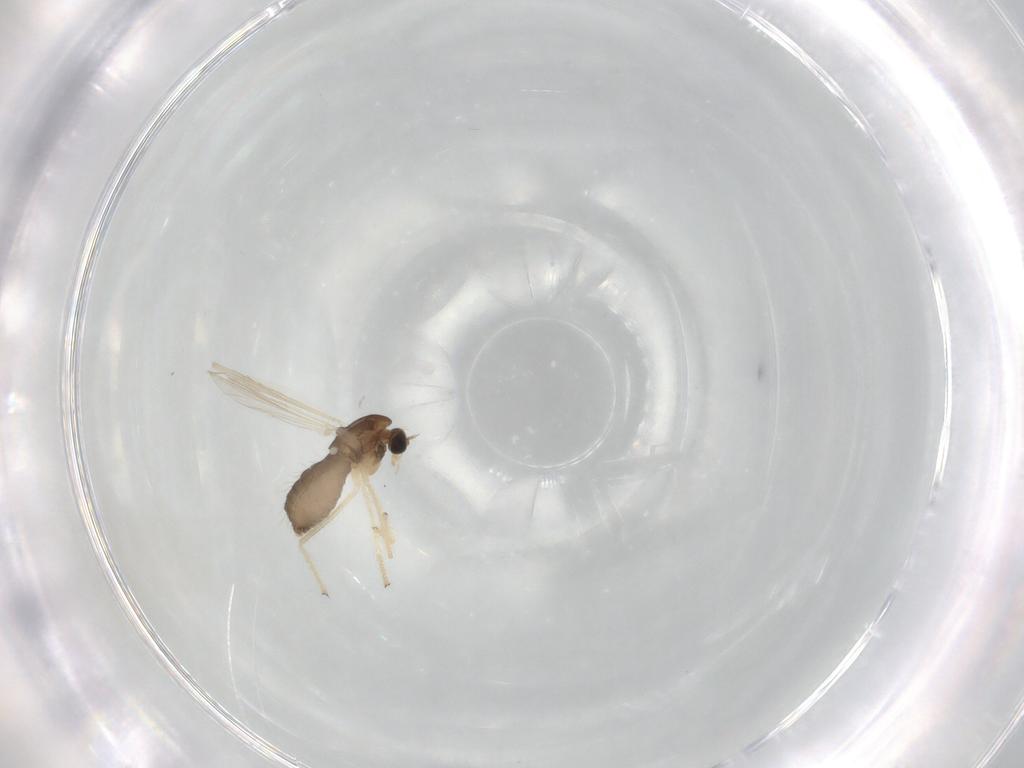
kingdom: Animalia
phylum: Arthropoda
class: Insecta
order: Diptera
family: Chironomidae
